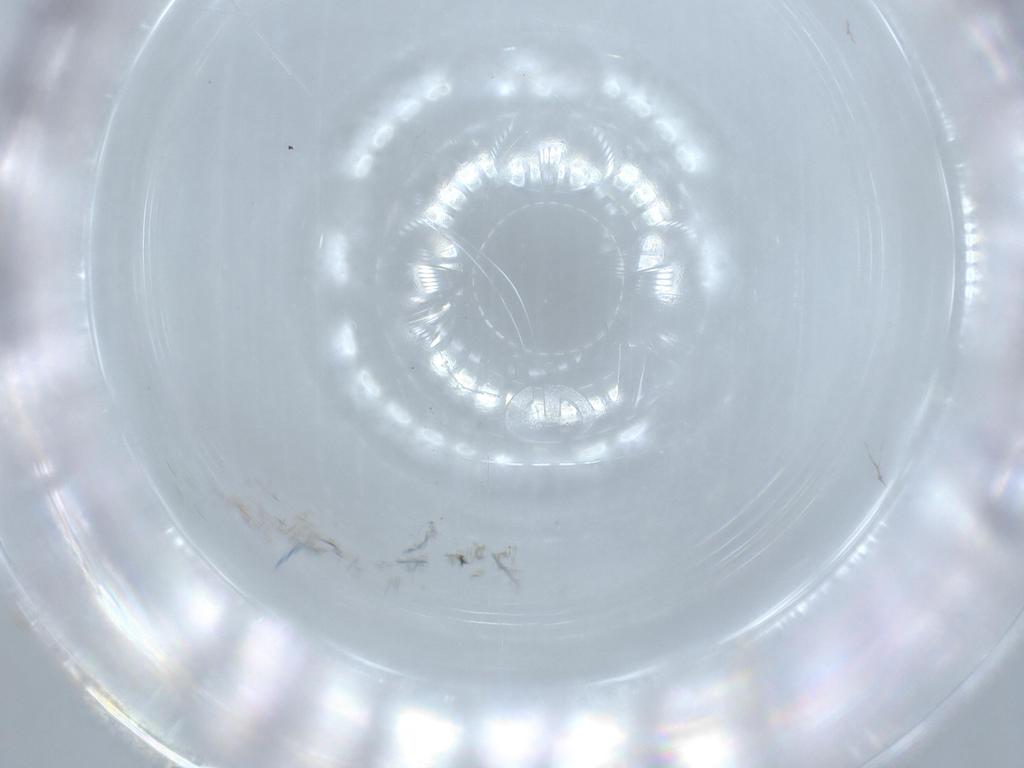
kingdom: Animalia
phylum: Arthropoda
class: Insecta
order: Diptera
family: Cecidomyiidae
